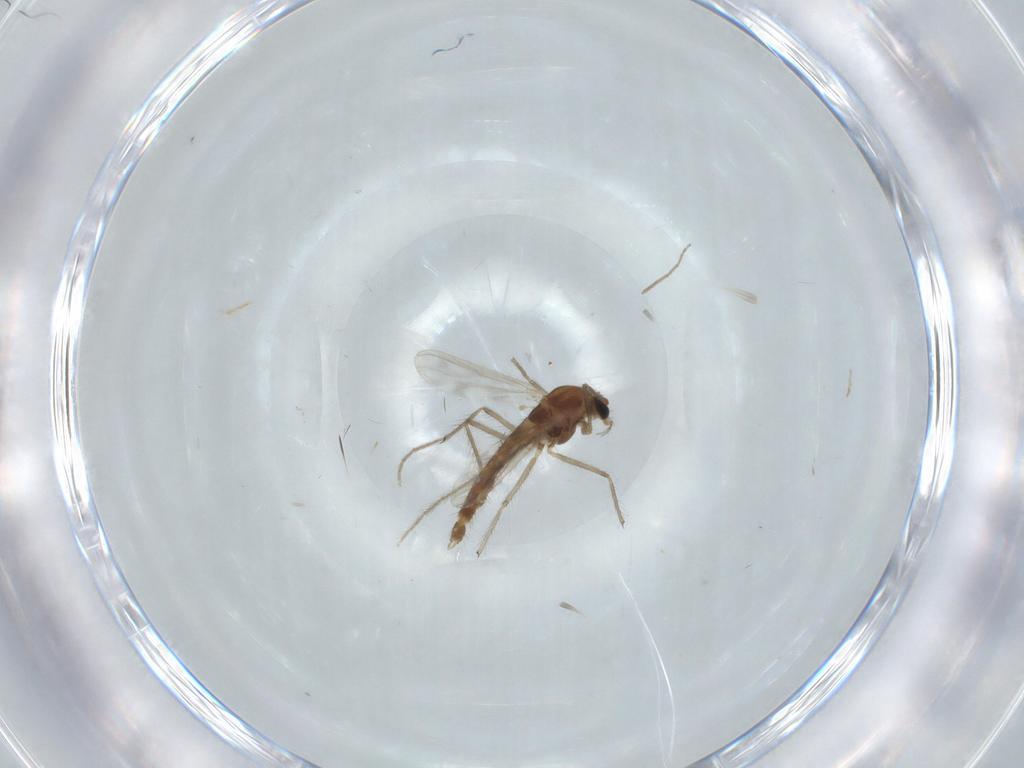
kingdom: Animalia
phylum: Arthropoda
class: Insecta
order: Diptera
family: Chironomidae
